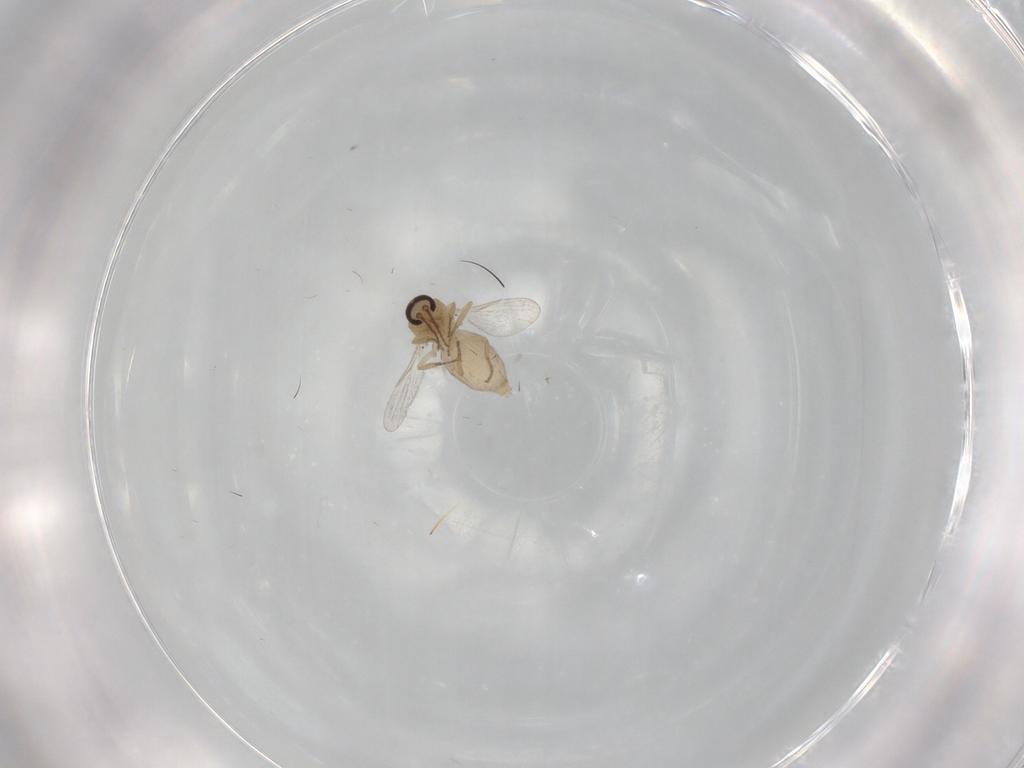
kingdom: Animalia
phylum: Arthropoda
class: Insecta
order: Diptera
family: Ceratopogonidae
